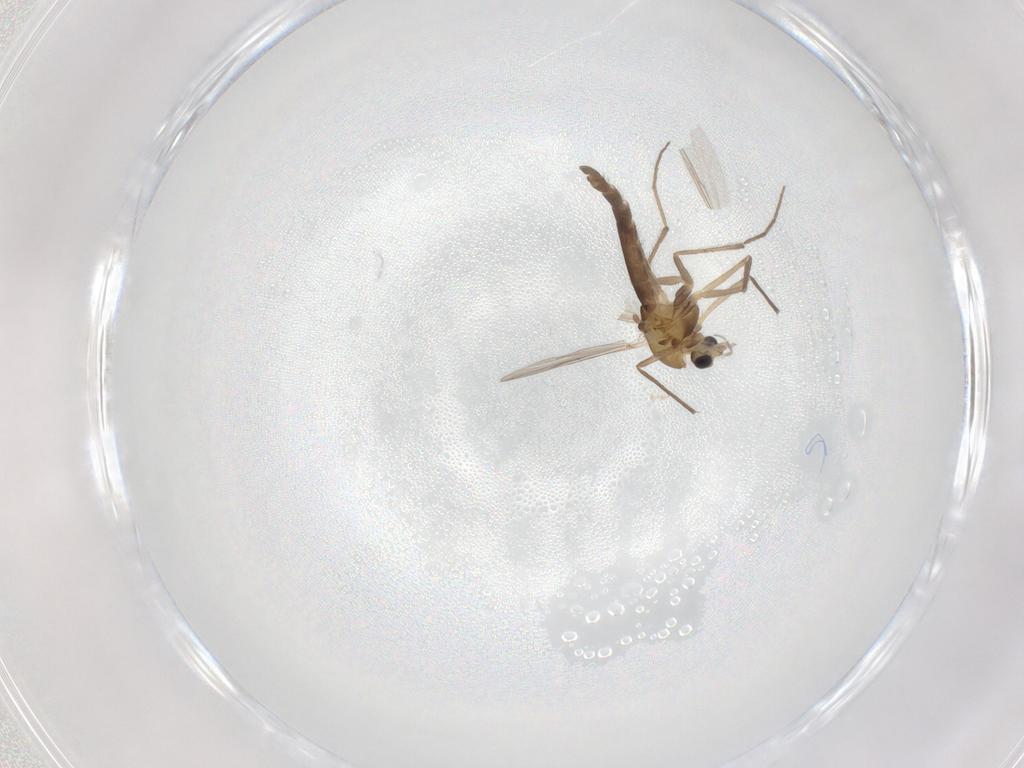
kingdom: Animalia
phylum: Arthropoda
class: Insecta
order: Diptera
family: Chironomidae
